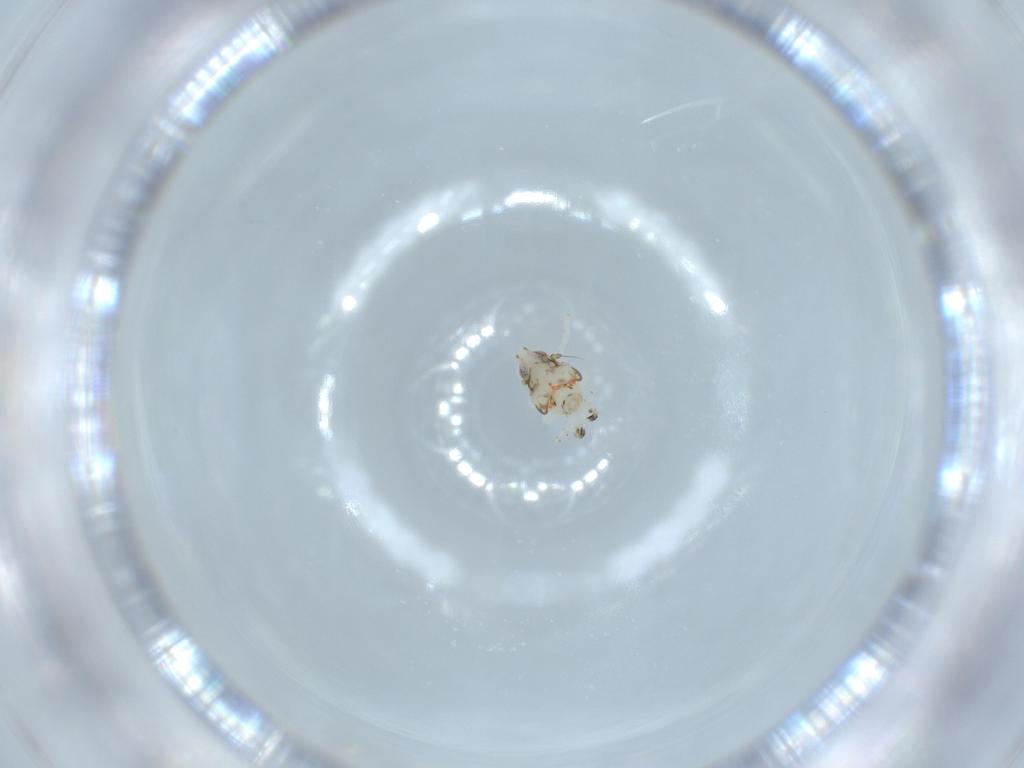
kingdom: Animalia
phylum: Arthropoda
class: Insecta
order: Hemiptera
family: Nogodinidae
